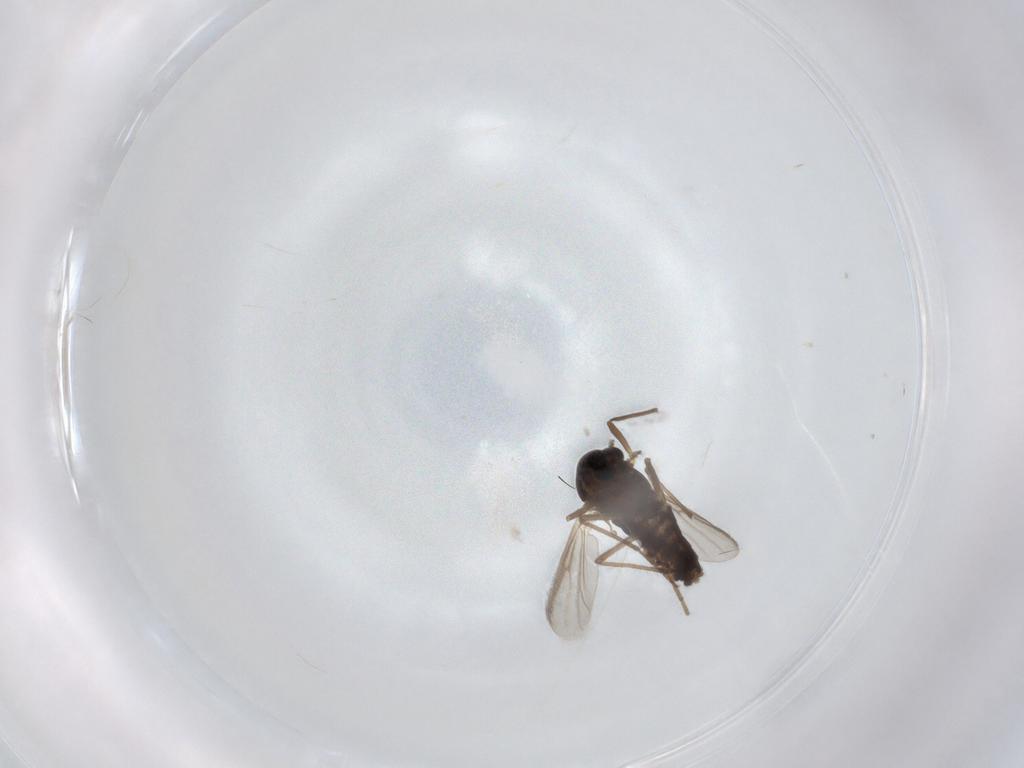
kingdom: Animalia
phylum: Arthropoda
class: Insecta
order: Diptera
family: Chironomidae
